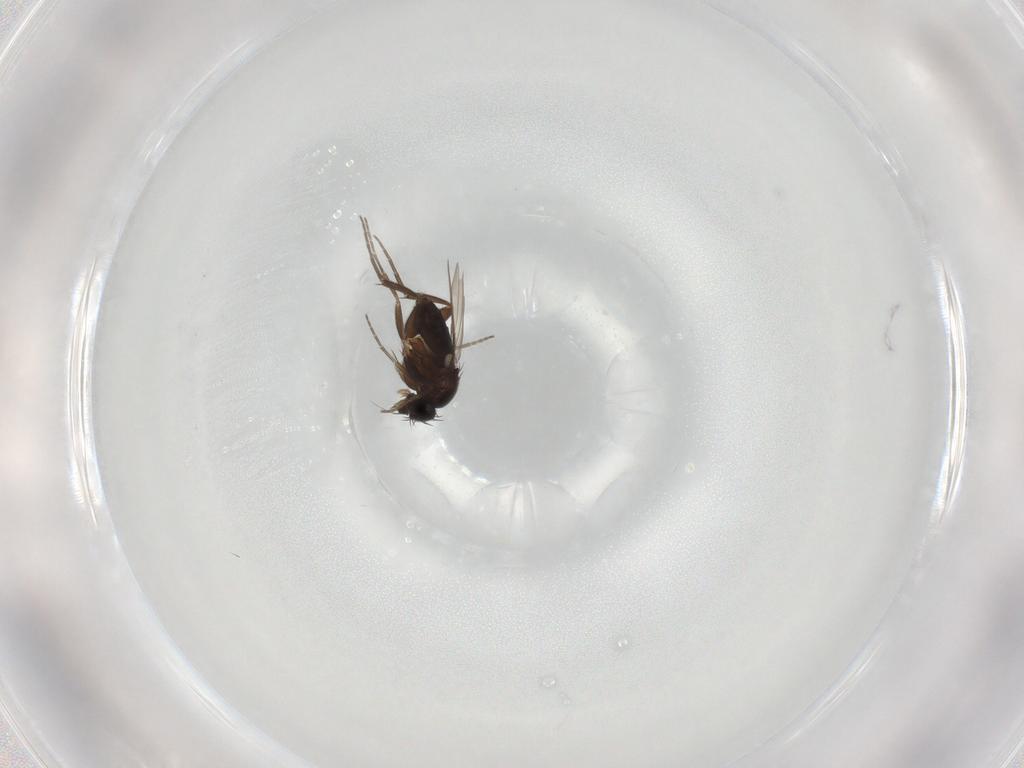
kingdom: Animalia
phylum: Arthropoda
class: Insecta
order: Diptera
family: Phoridae
